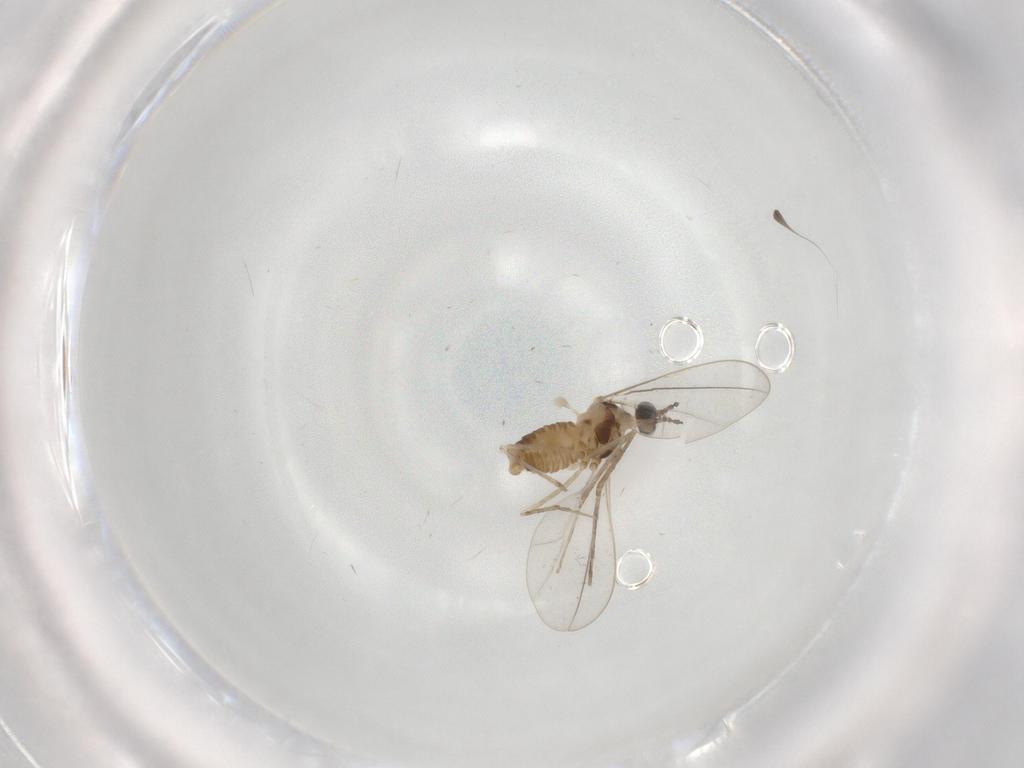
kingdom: Animalia
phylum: Arthropoda
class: Insecta
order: Diptera
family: Cecidomyiidae
